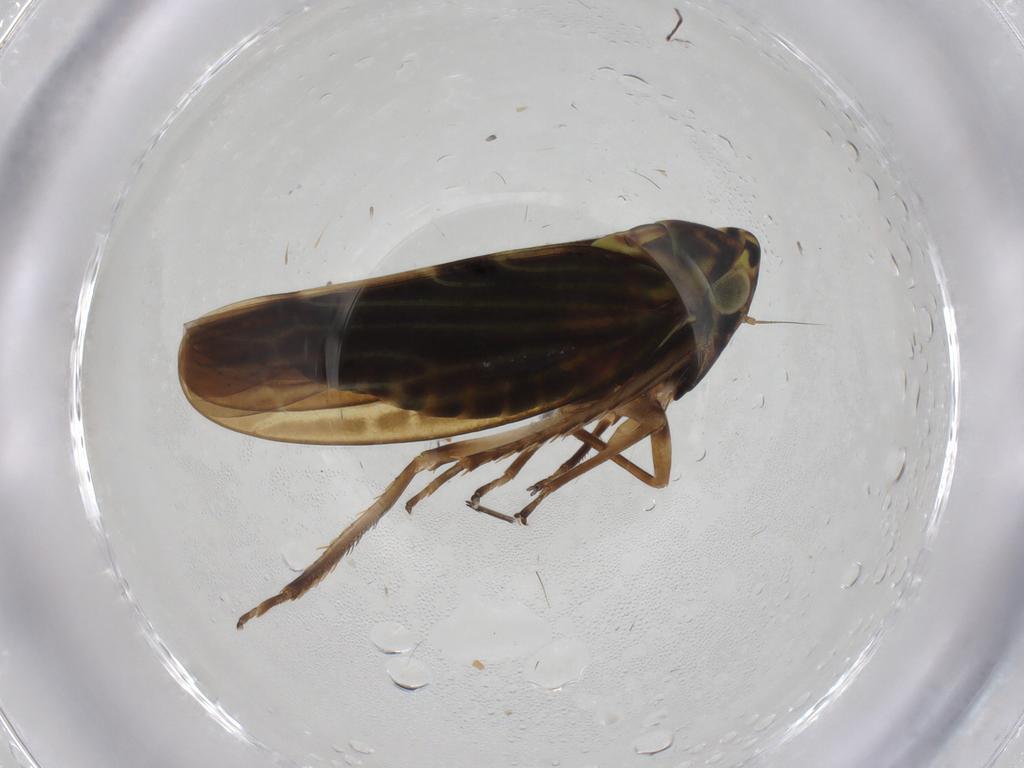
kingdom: Animalia
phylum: Arthropoda
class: Insecta
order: Hemiptera
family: Cicadellidae
